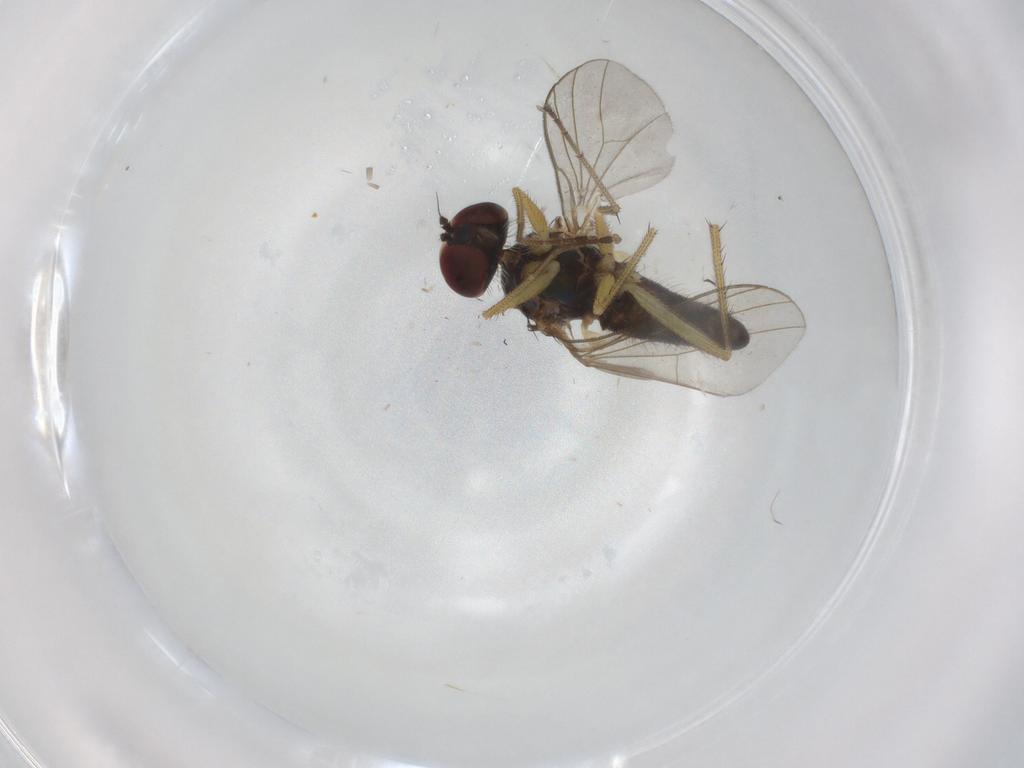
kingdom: Animalia
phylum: Arthropoda
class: Insecta
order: Diptera
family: Dolichopodidae
